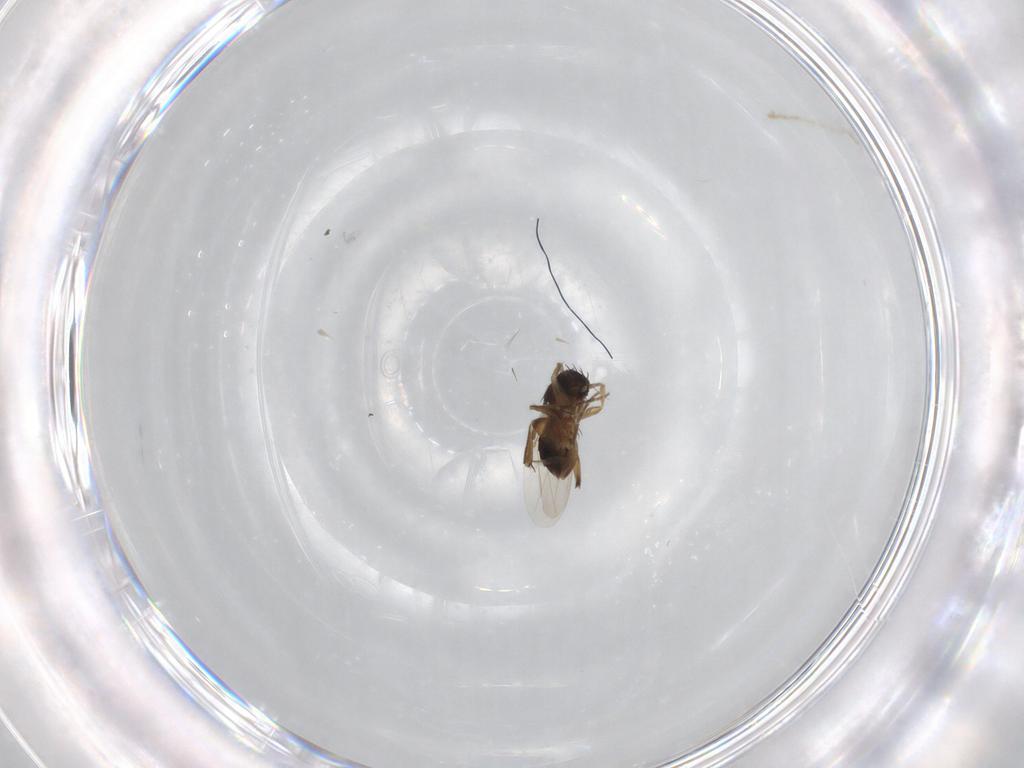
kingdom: Animalia
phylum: Arthropoda
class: Insecta
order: Diptera
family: Phoridae
